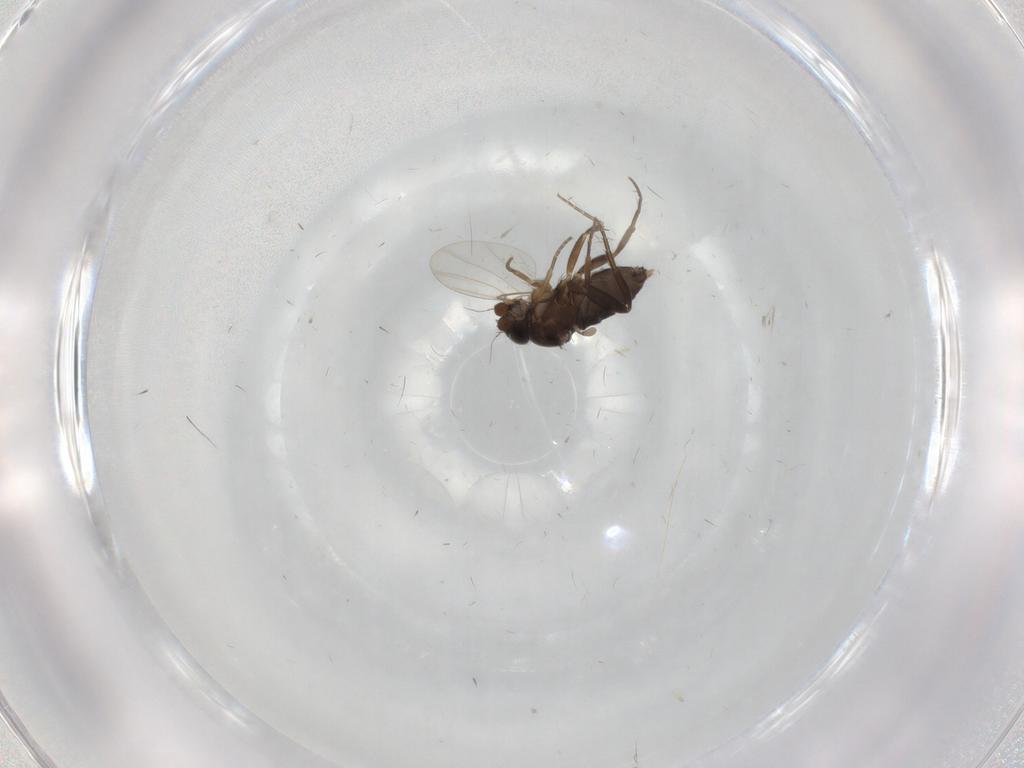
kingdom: Animalia
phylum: Arthropoda
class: Insecta
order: Diptera
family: Phoridae
